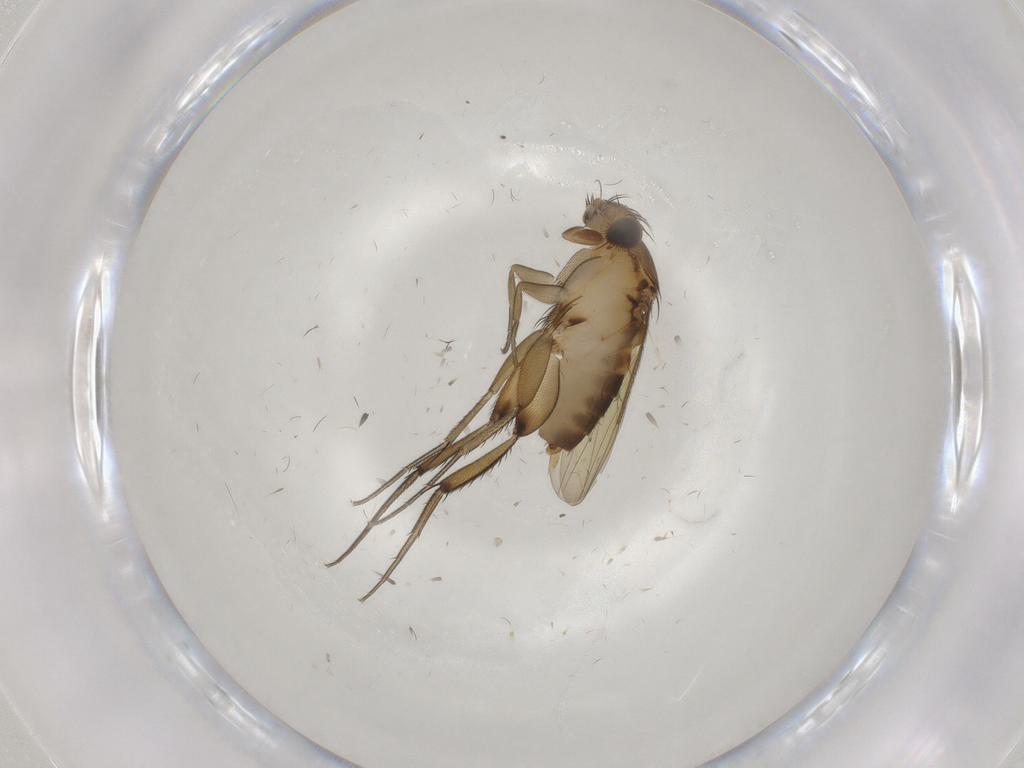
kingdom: Animalia
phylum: Arthropoda
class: Insecta
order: Diptera
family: Phoridae
